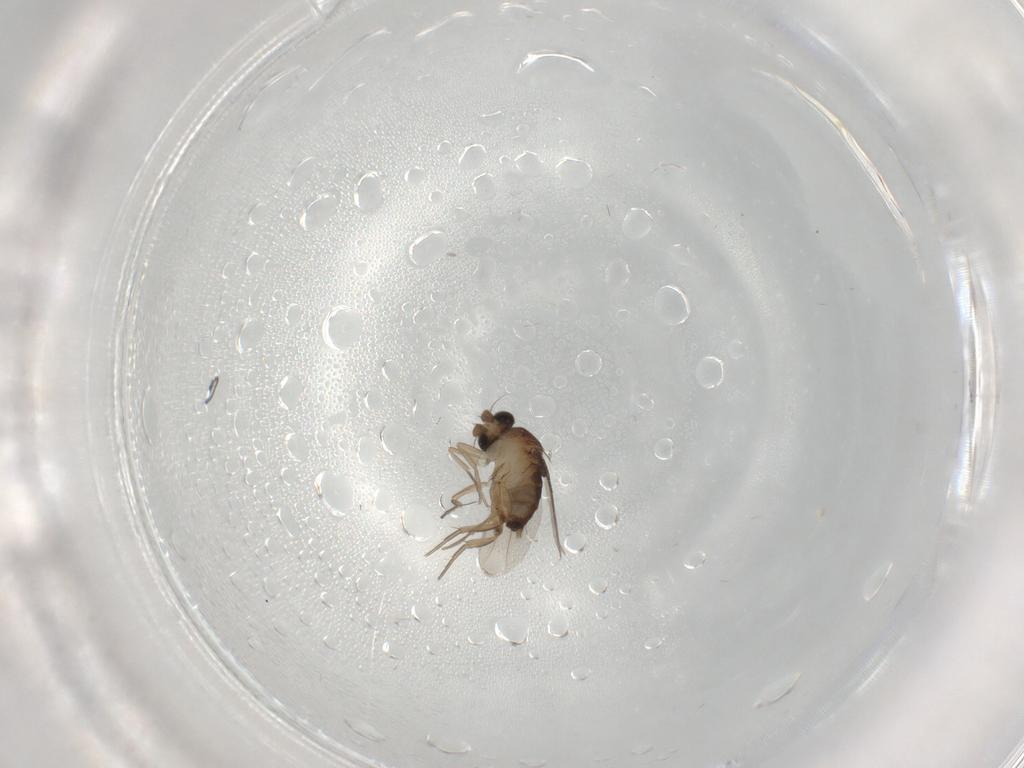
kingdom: Animalia
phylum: Arthropoda
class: Insecta
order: Diptera
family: Phoridae
